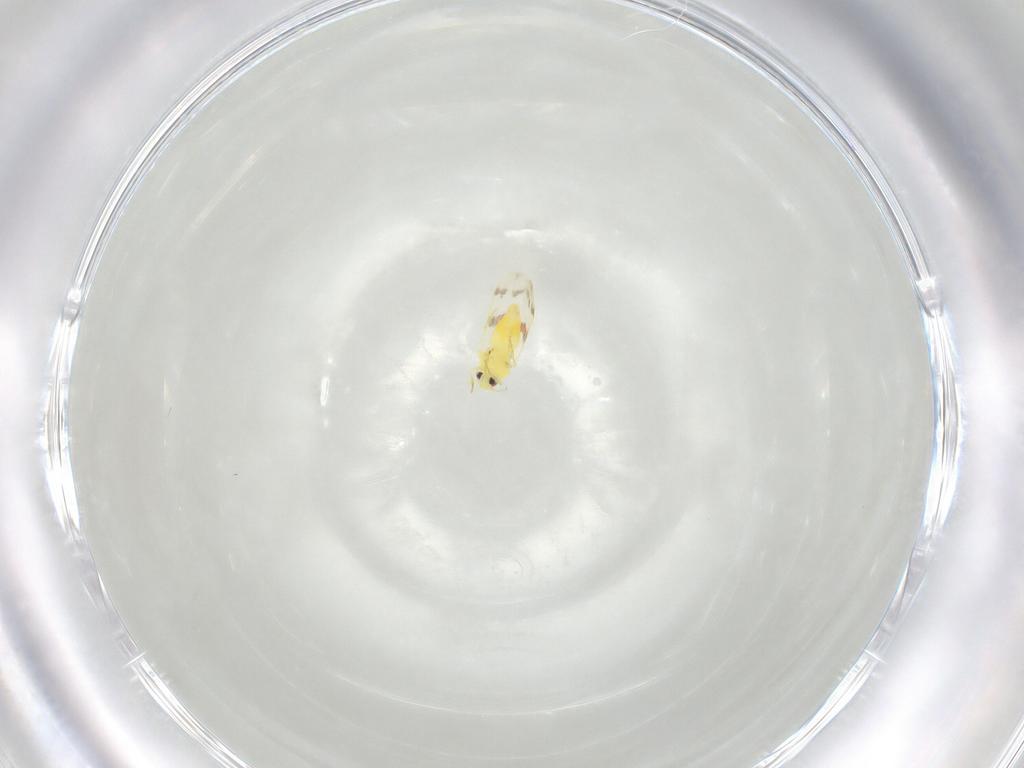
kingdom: Animalia
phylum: Arthropoda
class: Insecta
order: Hemiptera
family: Aleyrodidae
